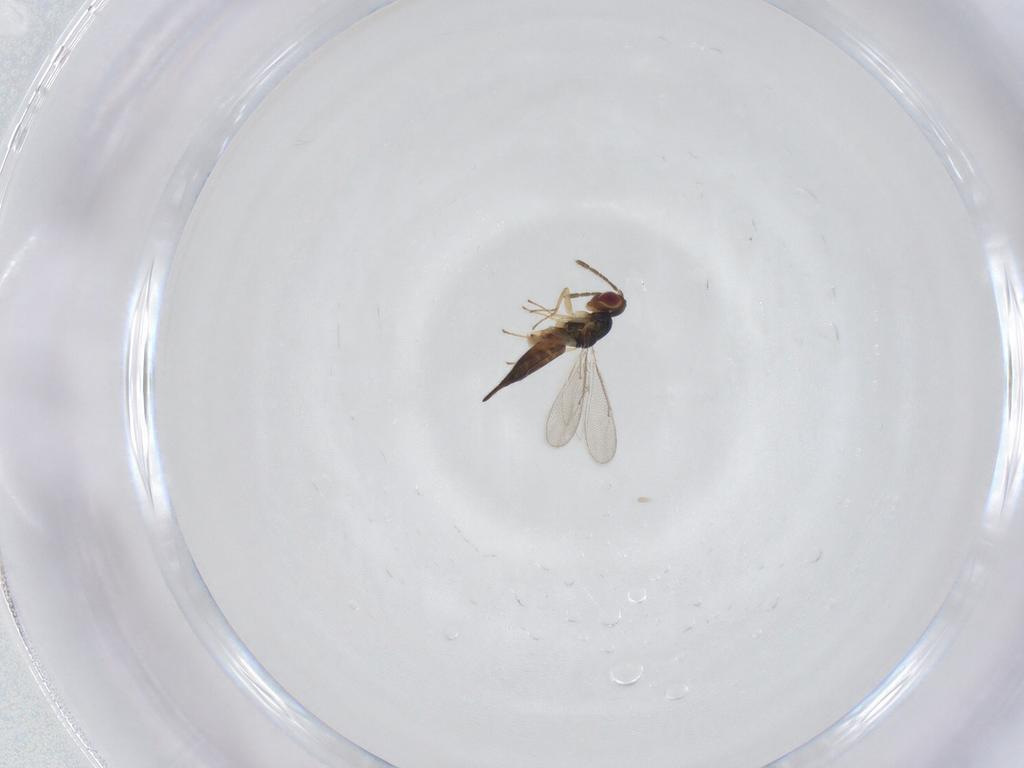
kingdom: Animalia
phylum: Arthropoda
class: Insecta
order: Hymenoptera
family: Eulophidae
